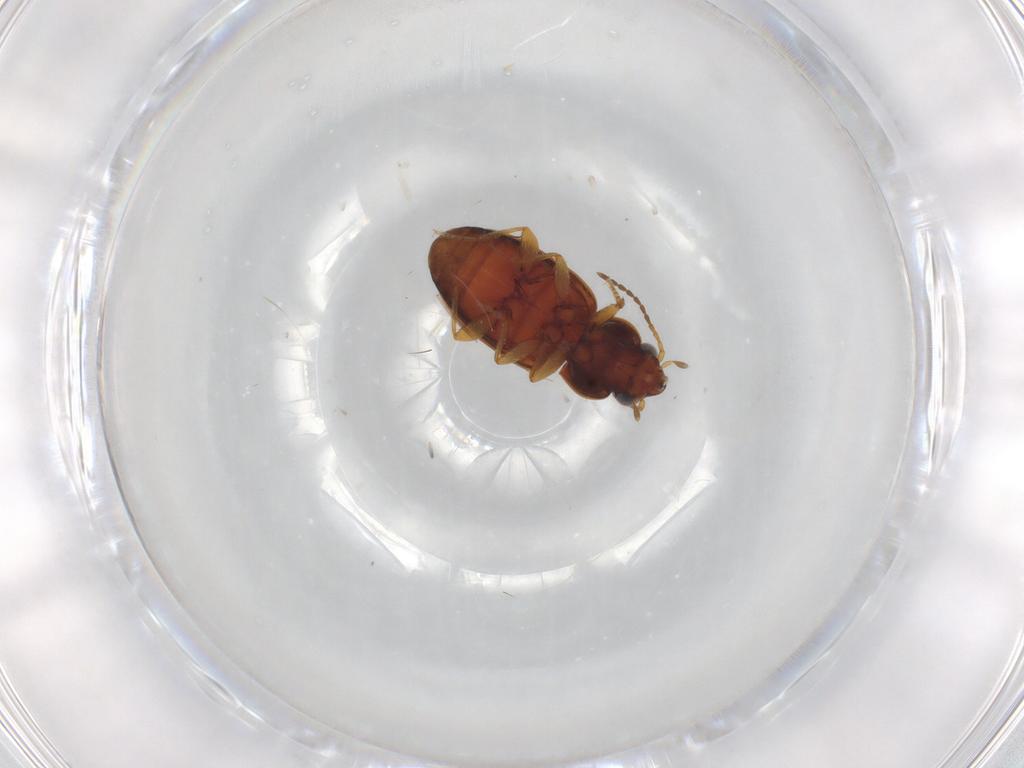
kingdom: Animalia
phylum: Arthropoda
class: Insecta
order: Coleoptera
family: Carabidae
